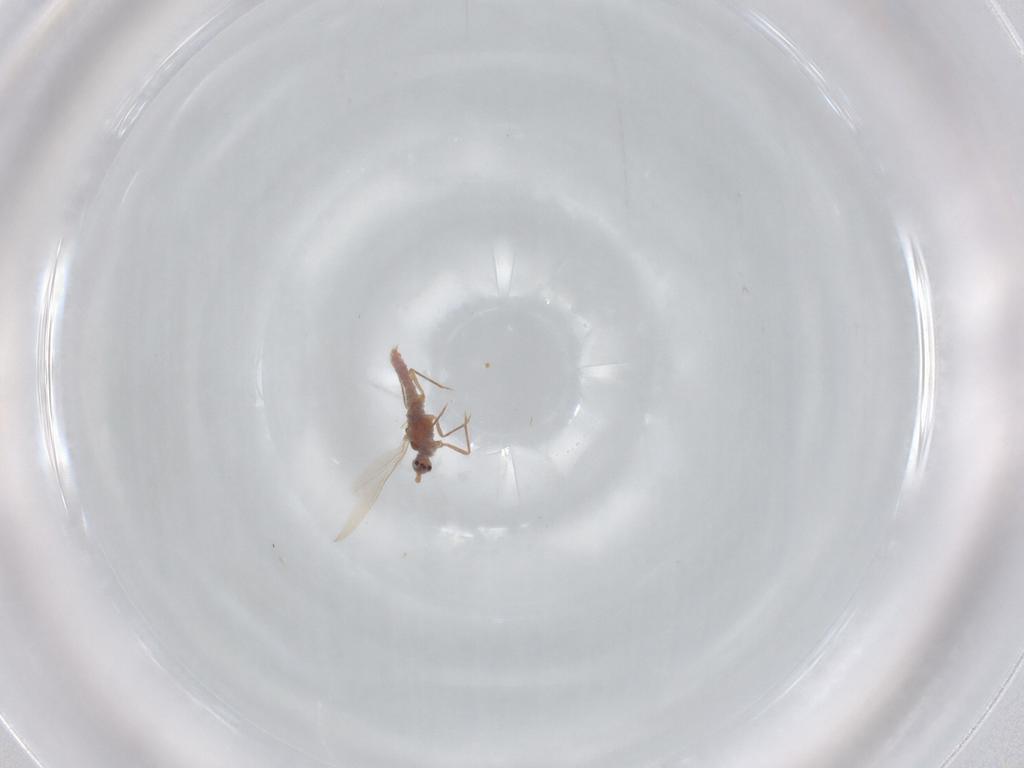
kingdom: Animalia
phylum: Arthropoda
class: Insecta
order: Hemiptera
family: Coccoidea_incertae_sedis
